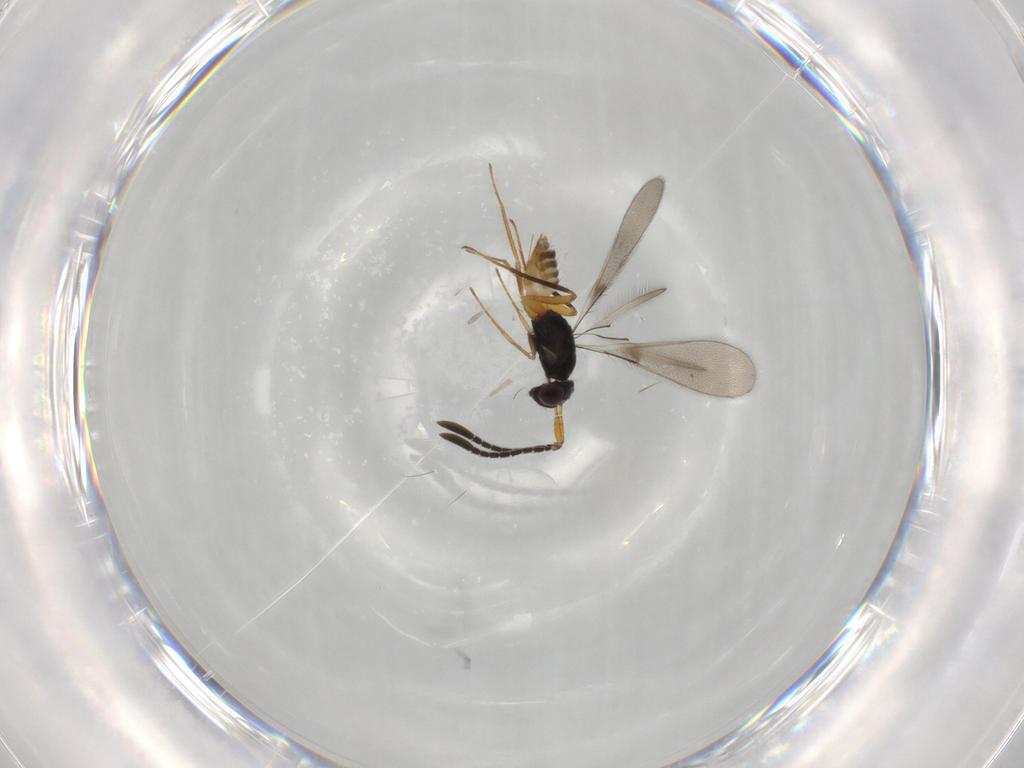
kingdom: Animalia
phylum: Arthropoda
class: Insecta
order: Hymenoptera
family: Mymaridae
